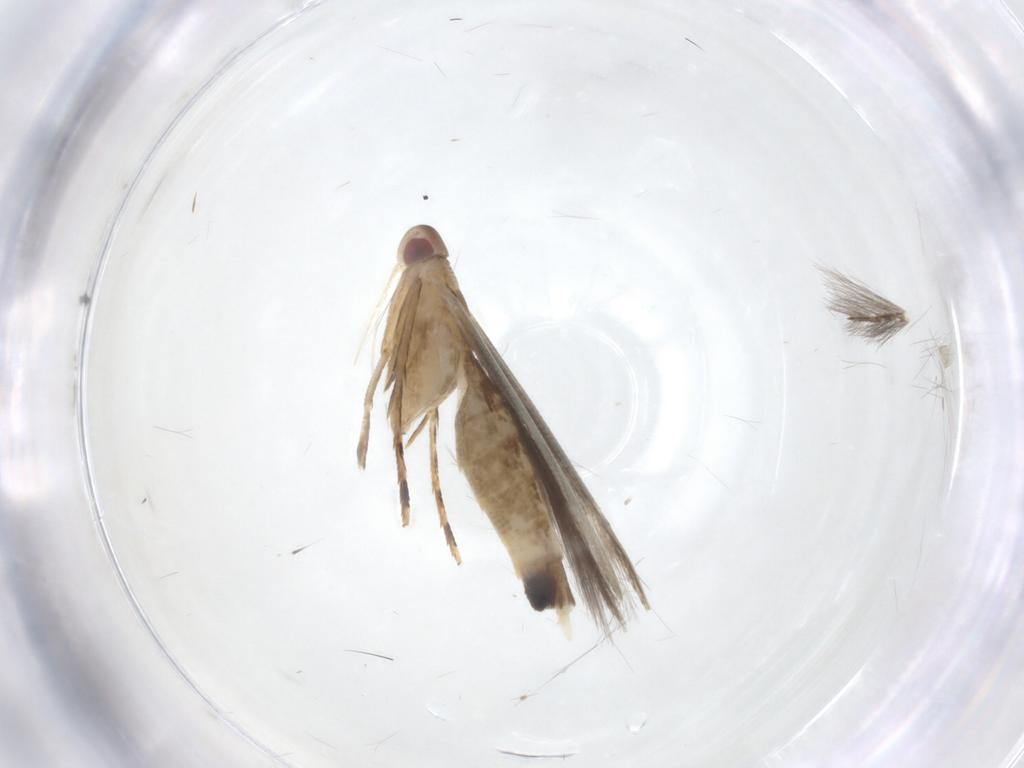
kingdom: Animalia
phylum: Arthropoda
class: Insecta
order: Lepidoptera
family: Cosmopterigidae
